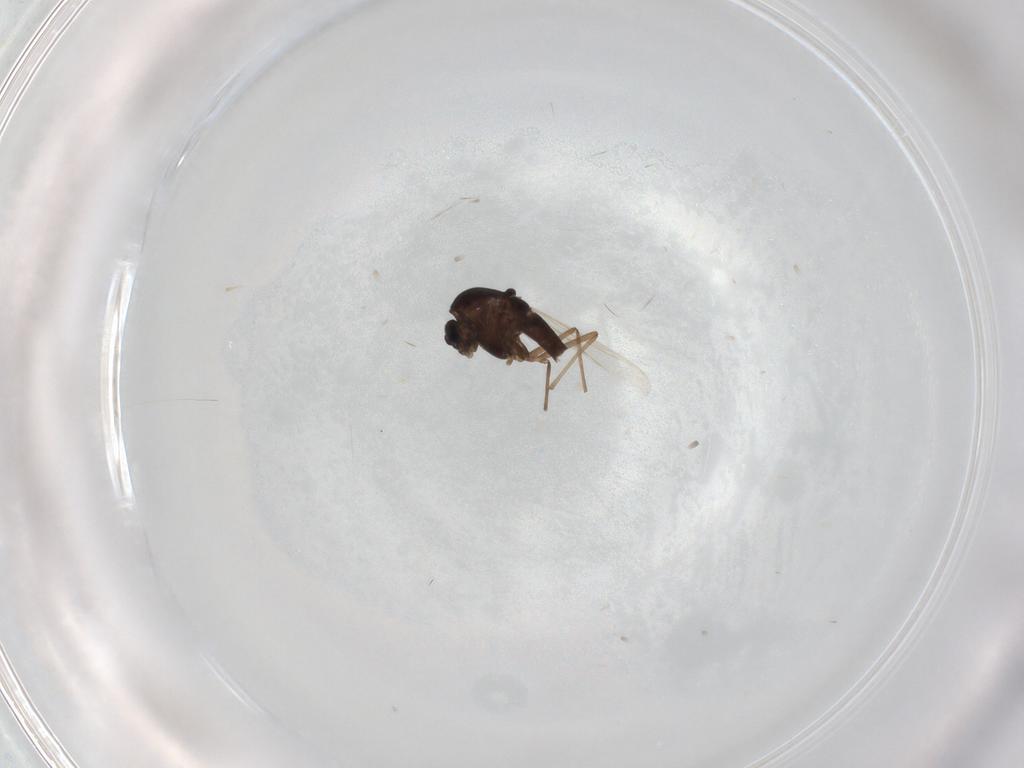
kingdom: Animalia
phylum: Arthropoda
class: Insecta
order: Diptera
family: Chironomidae
